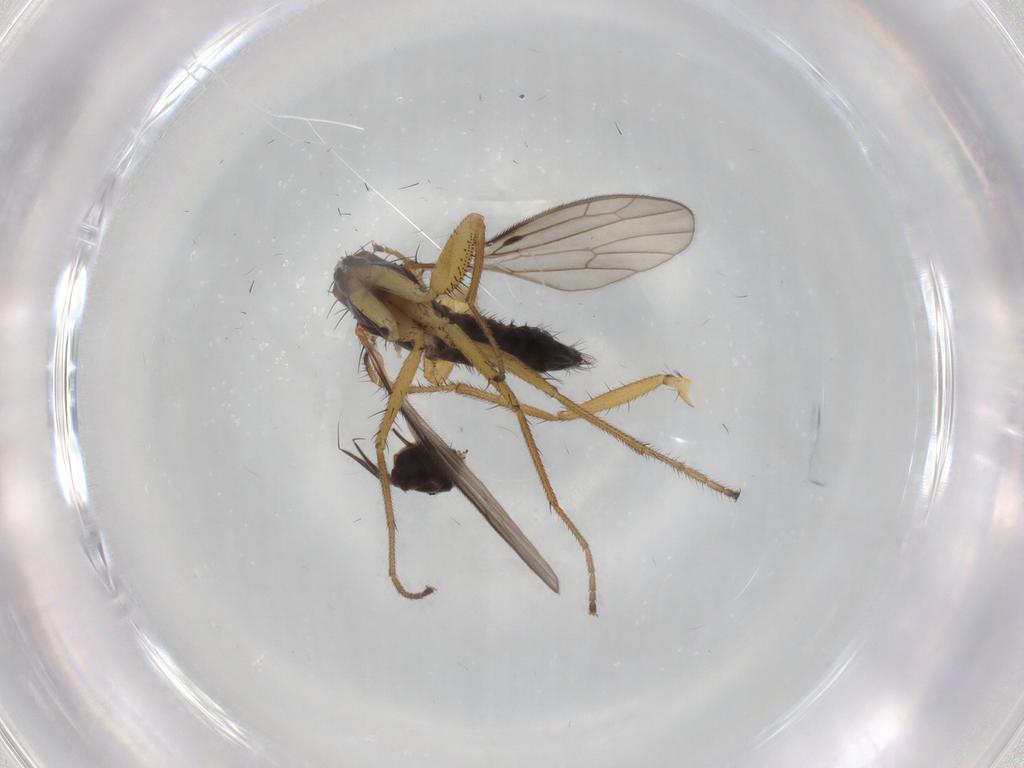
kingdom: Animalia
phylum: Arthropoda
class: Insecta
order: Diptera
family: Empididae
